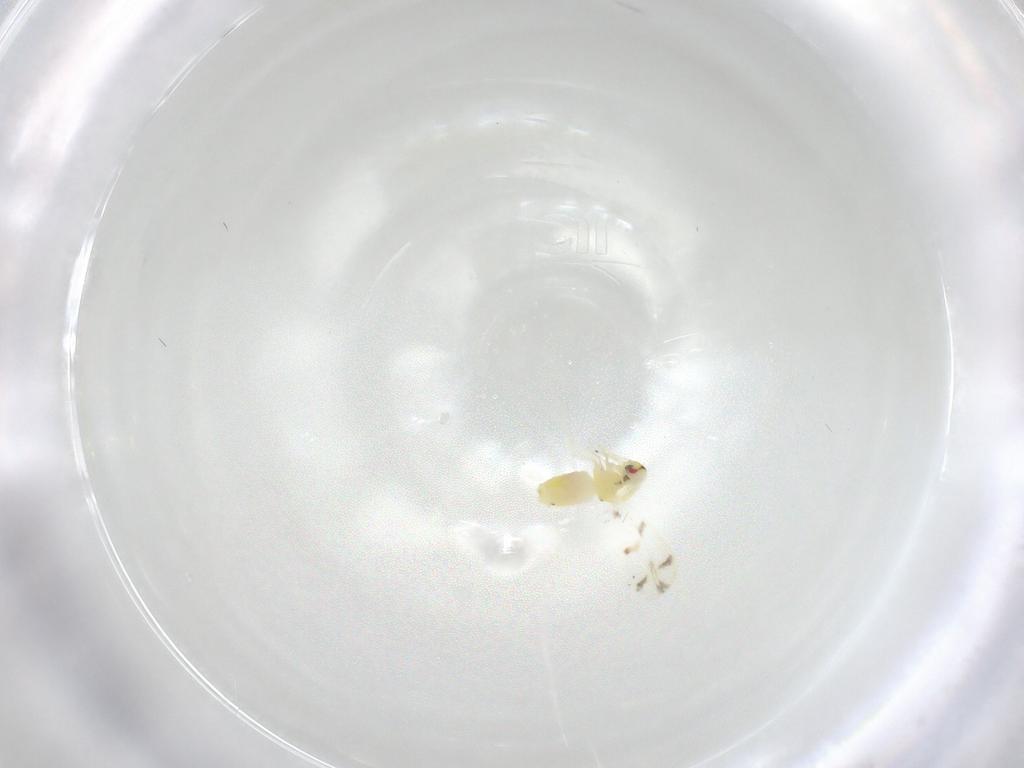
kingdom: Animalia
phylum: Arthropoda
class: Insecta
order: Hemiptera
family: Aleyrodidae
